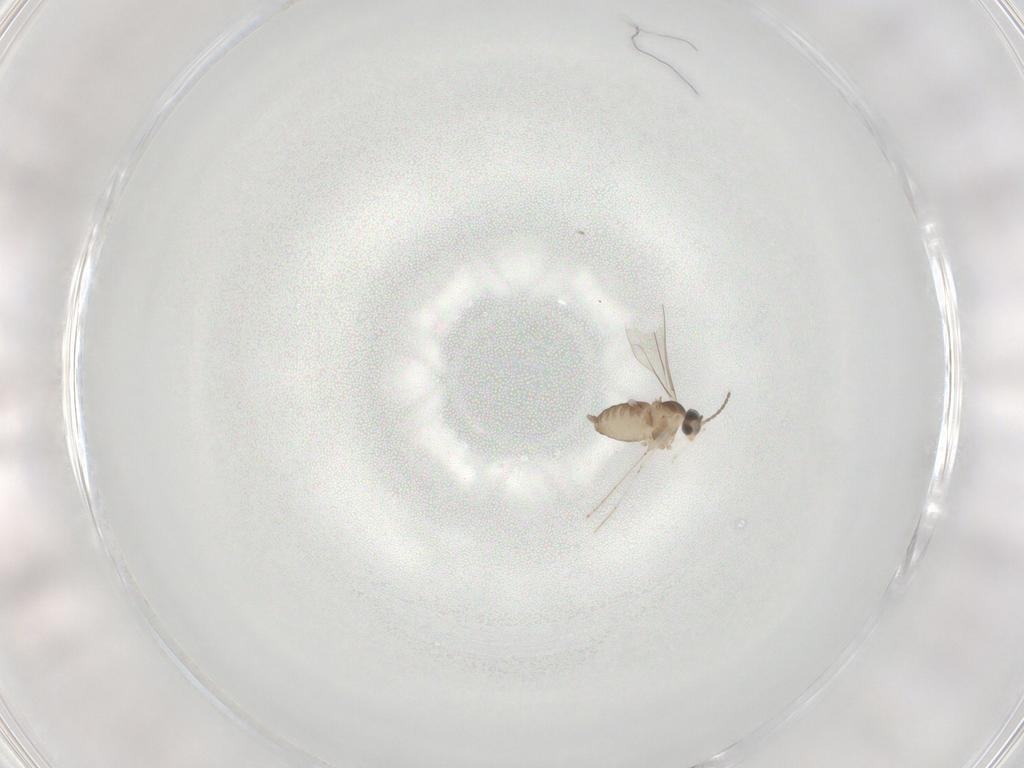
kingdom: Animalia
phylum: Arthropoda
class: Insecta
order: Diptera
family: Cecidomyiidae
